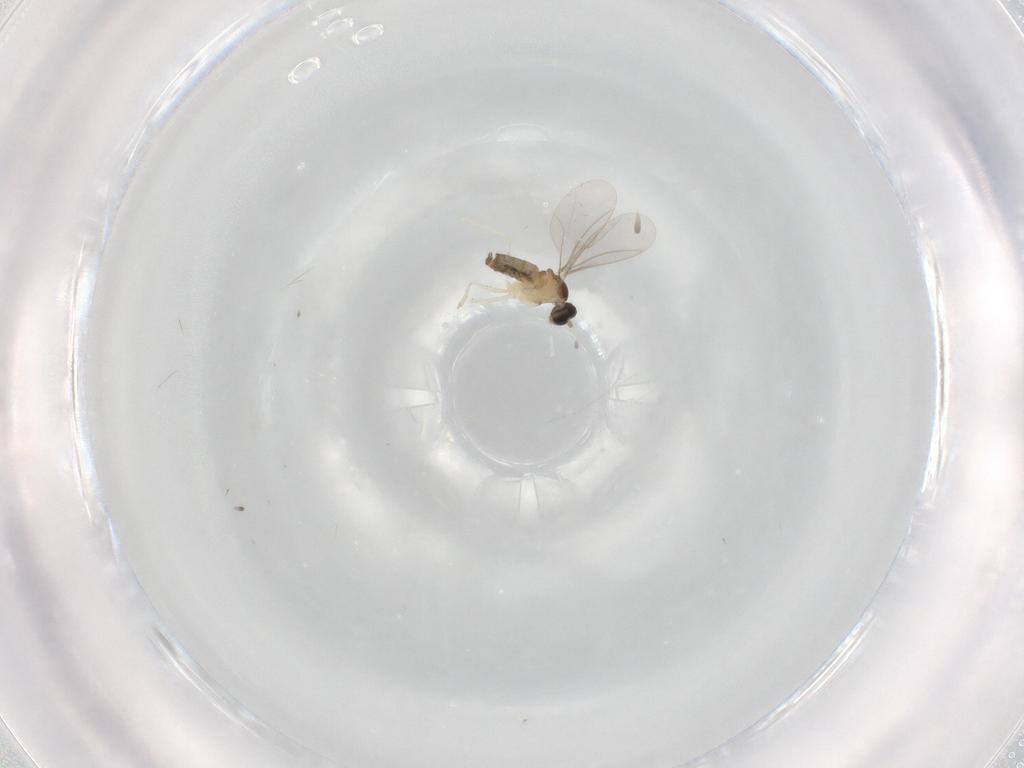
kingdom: Animalia
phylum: Arthropoda
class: Insecta
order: Diptera
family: Cecidomyiidae
